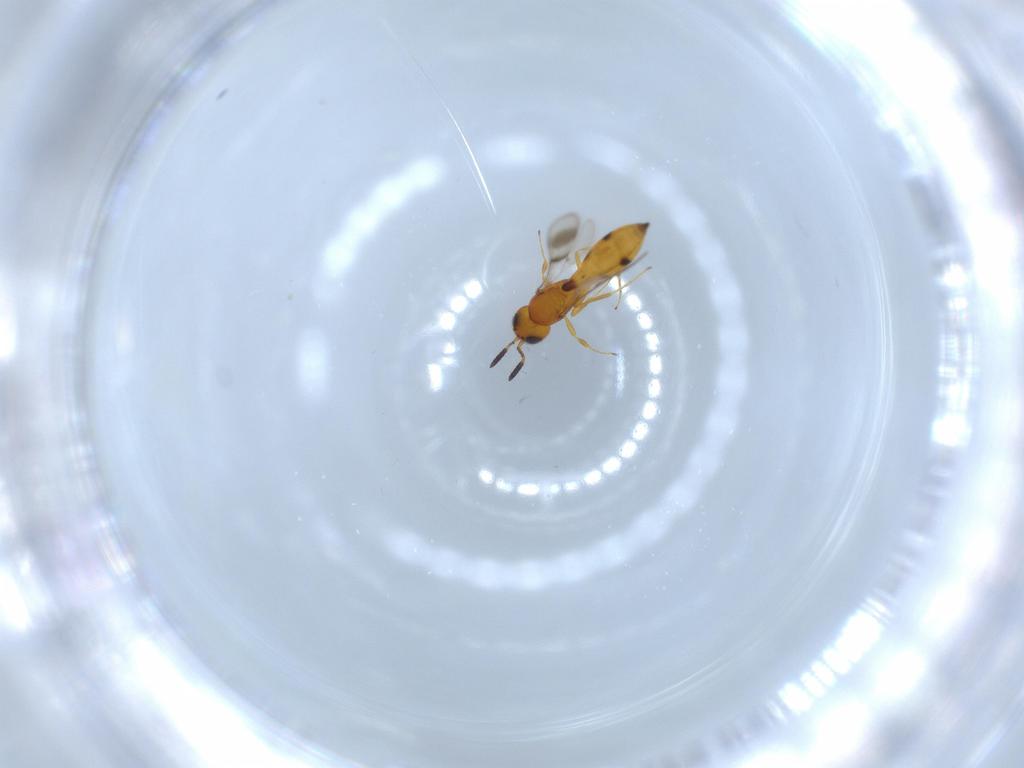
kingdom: Animalia
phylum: Arthropoda
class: Insecta
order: Hymenoptera
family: Scelionidae
